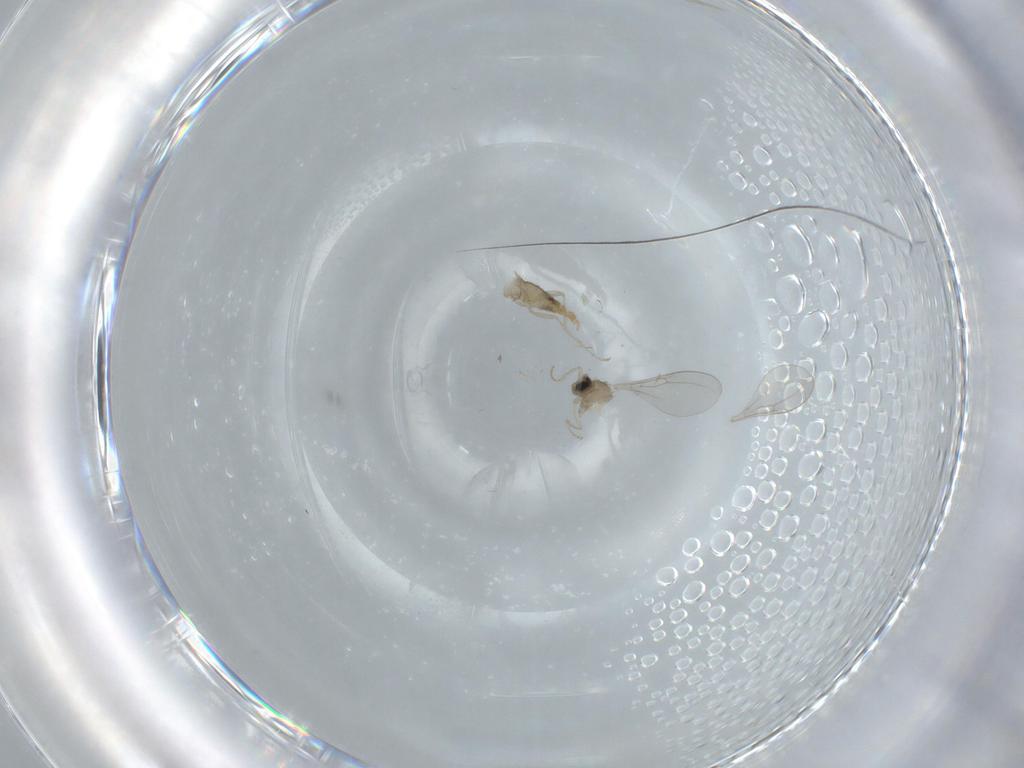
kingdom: Animalia
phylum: Arthropoda
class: Insecta
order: Diptera
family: Cecidomyiidae
